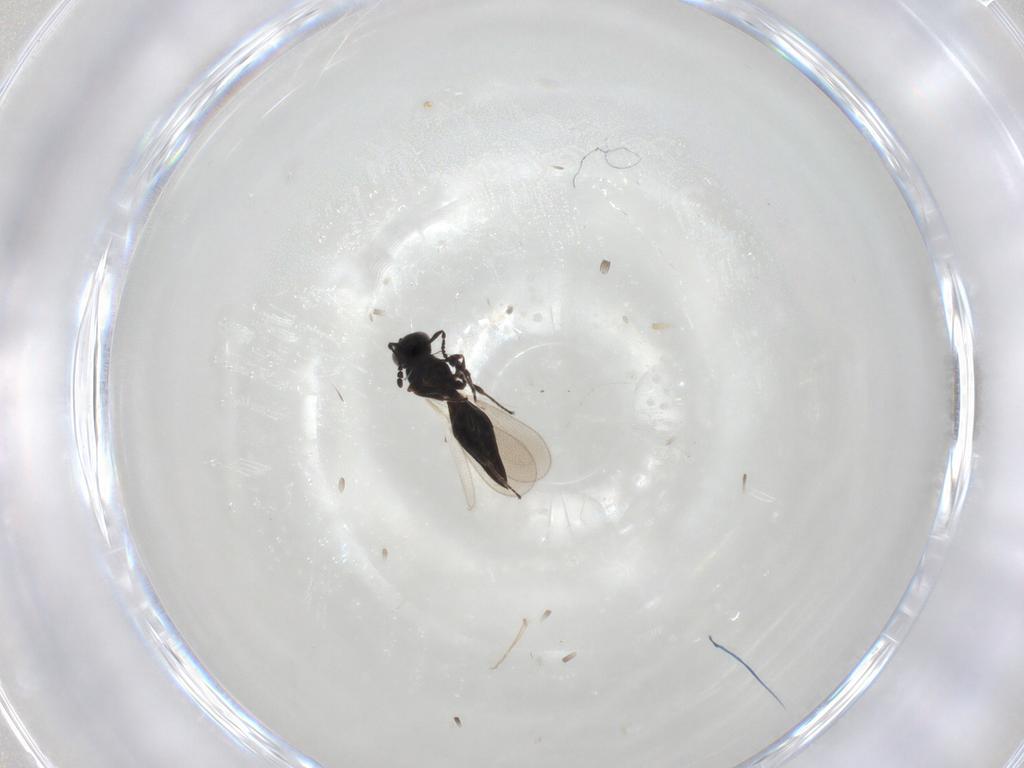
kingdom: Animalia
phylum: Arthropoda
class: Insecta
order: Hymenoptera
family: Platygastridae
